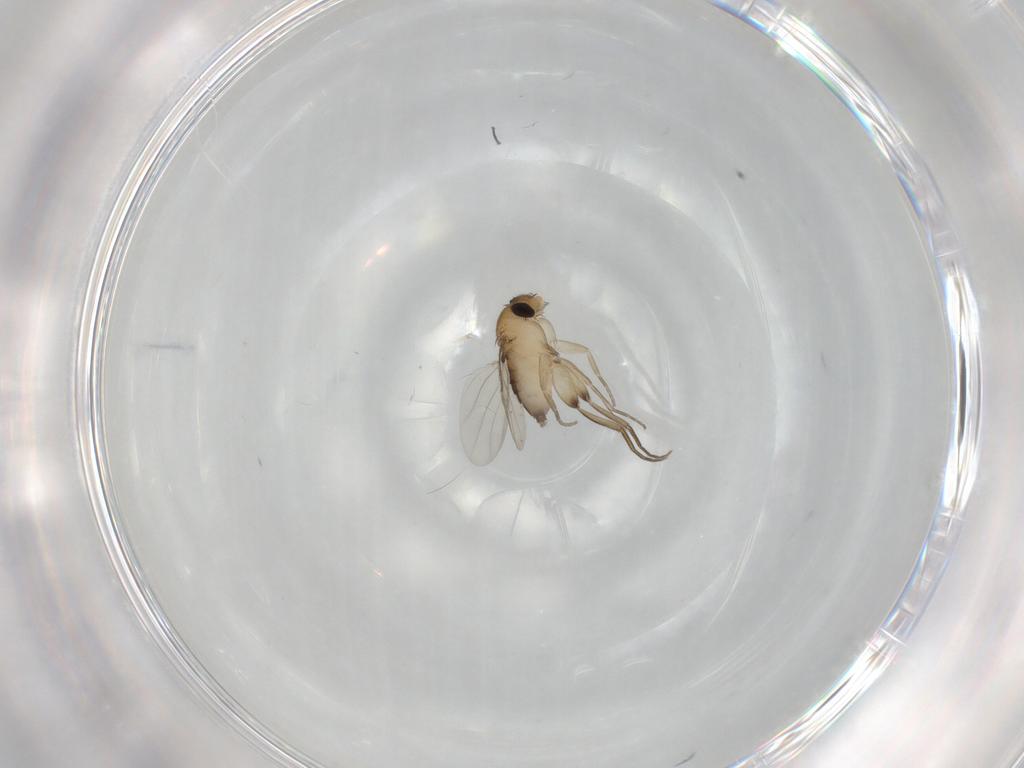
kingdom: Animalia
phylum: Arthropoda
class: Insecta
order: Diptera
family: Phoridae
